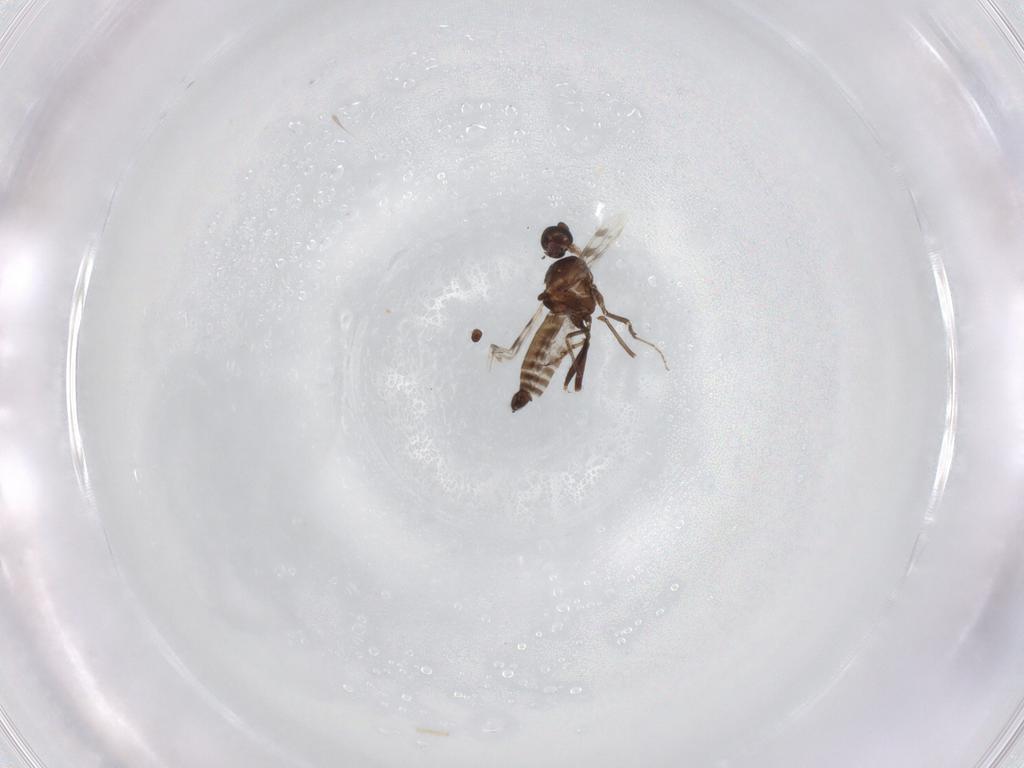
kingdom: Animalia
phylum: Arthropoda
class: Insecta
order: Diptera
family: Ceratopogonidae
